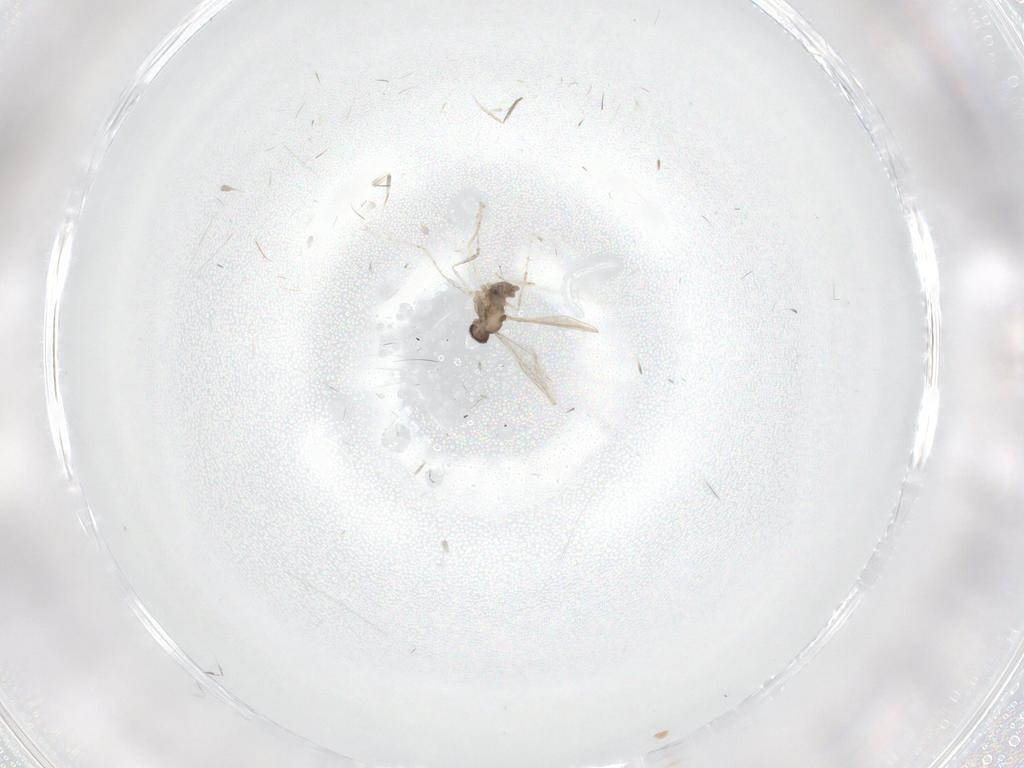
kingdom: Animalia
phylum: Arthropoda
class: Insecta
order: Diptera
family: Cecidomyiidae
